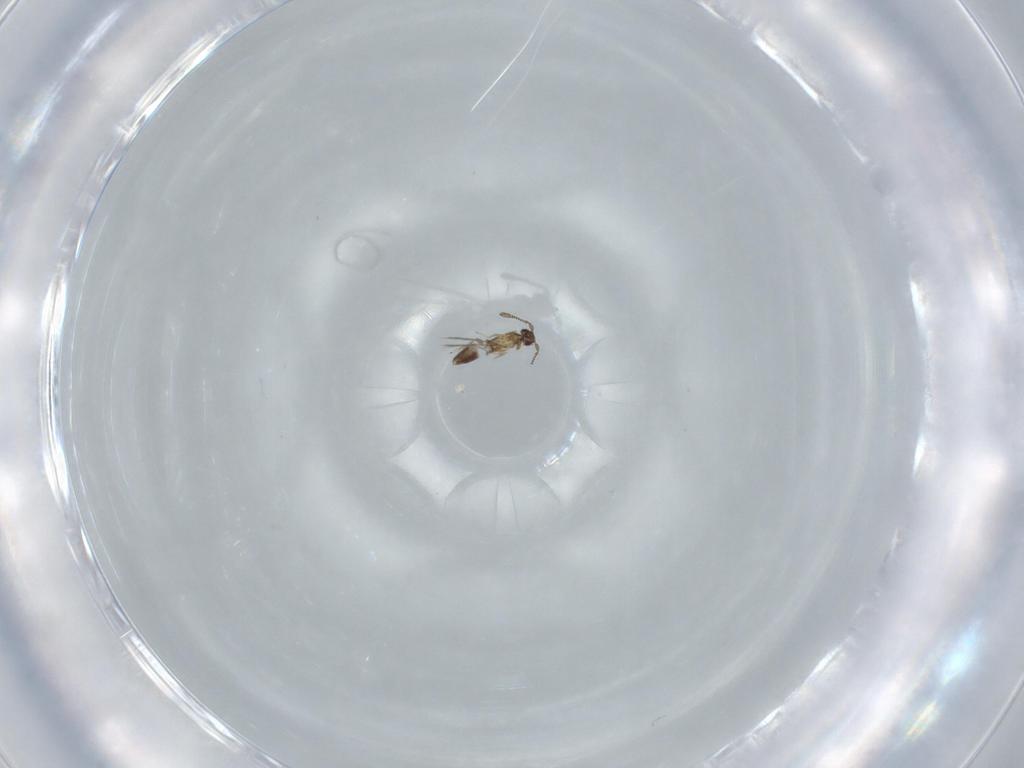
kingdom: Animalia
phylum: Arthropoda
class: Insecta
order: Hymenoptera
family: Mymaridae
